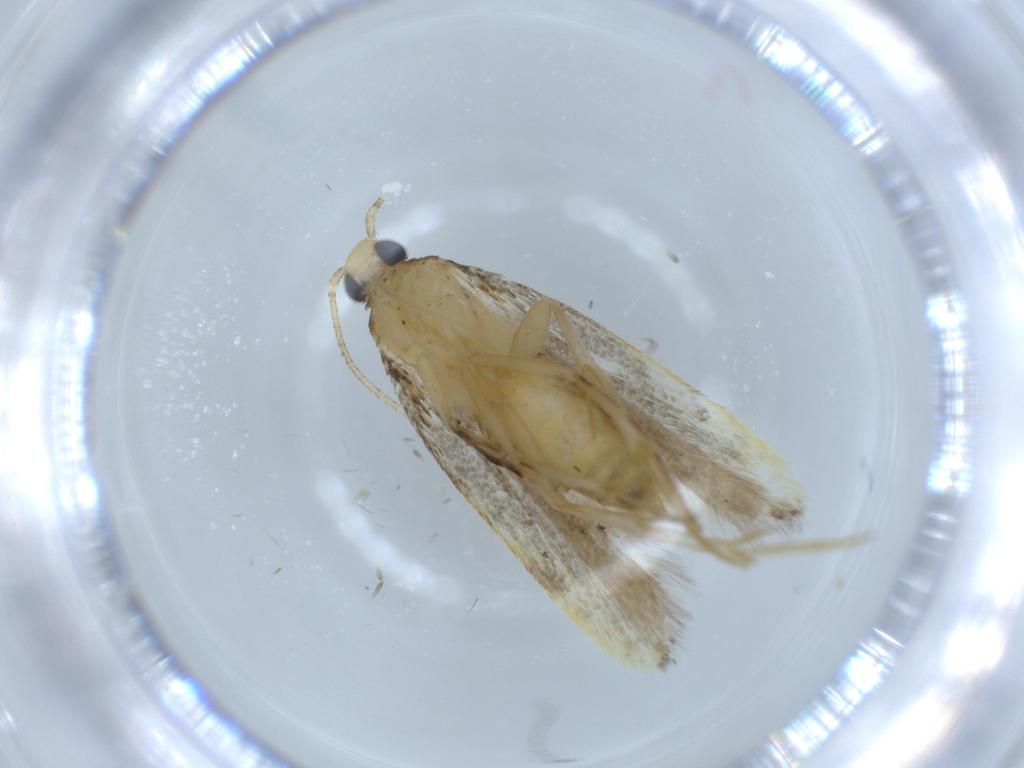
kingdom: Animalia
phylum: Arthropoda
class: Insecta
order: Lepidoptera
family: Autostichidae
